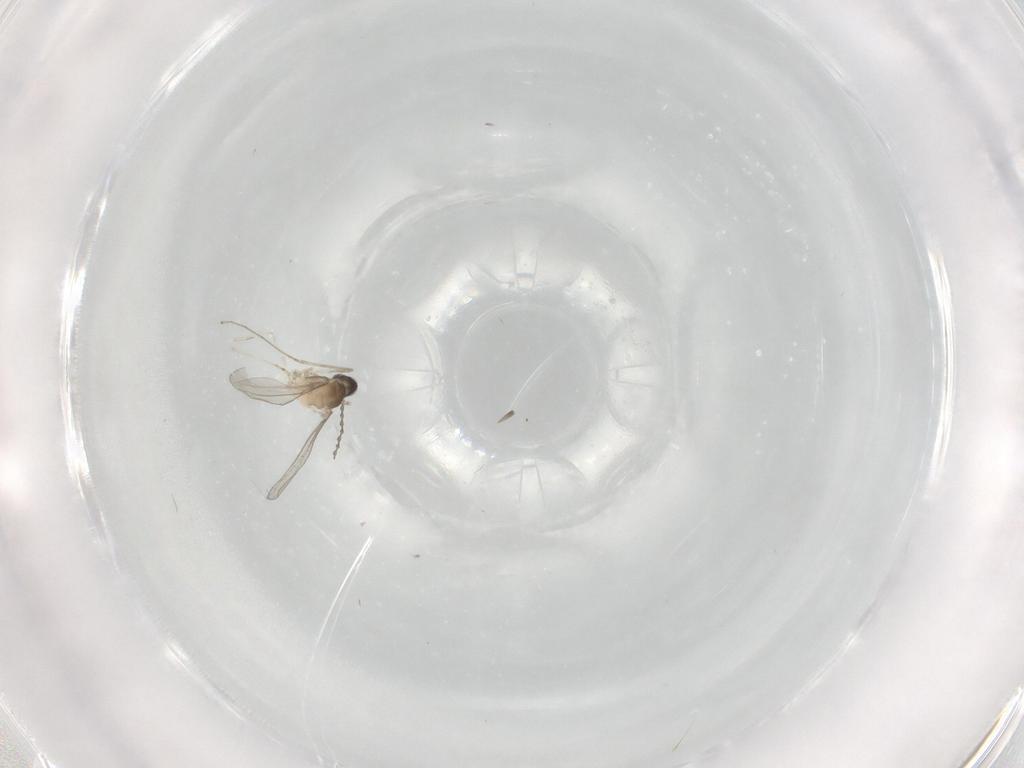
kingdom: Animalia
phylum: Arthropoda
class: Insecta
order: Diptera
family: Cecidomyiidae
